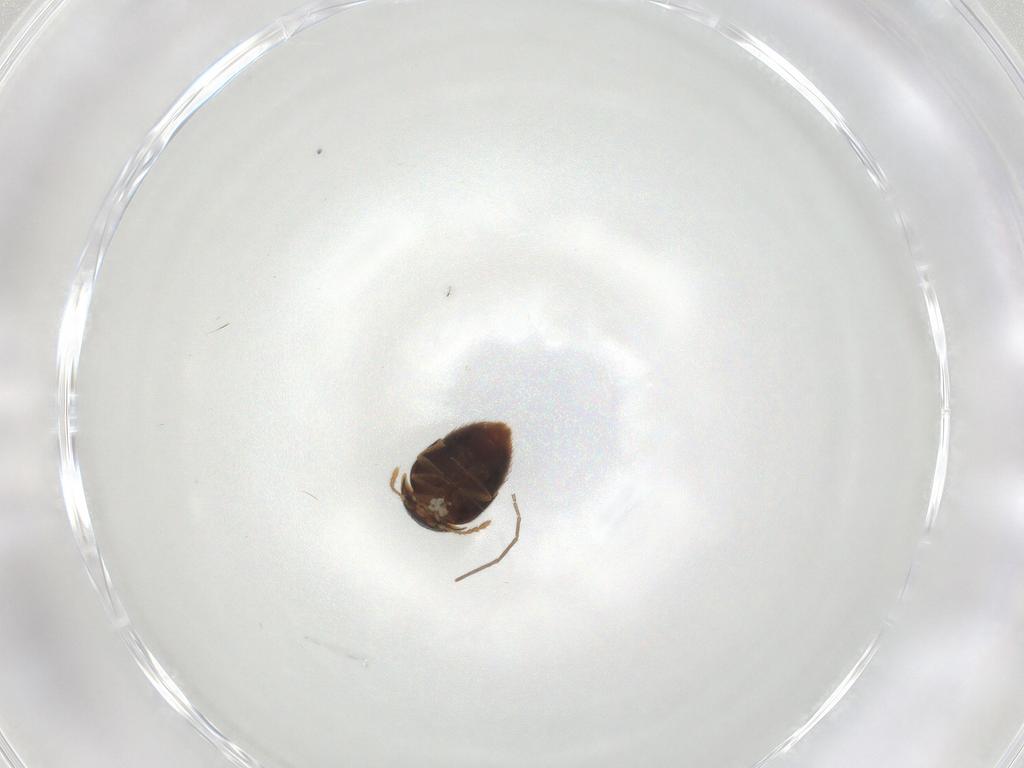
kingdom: Animalia
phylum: Arthropoda
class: Insecta
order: Coleoptera
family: Staphylinidae
